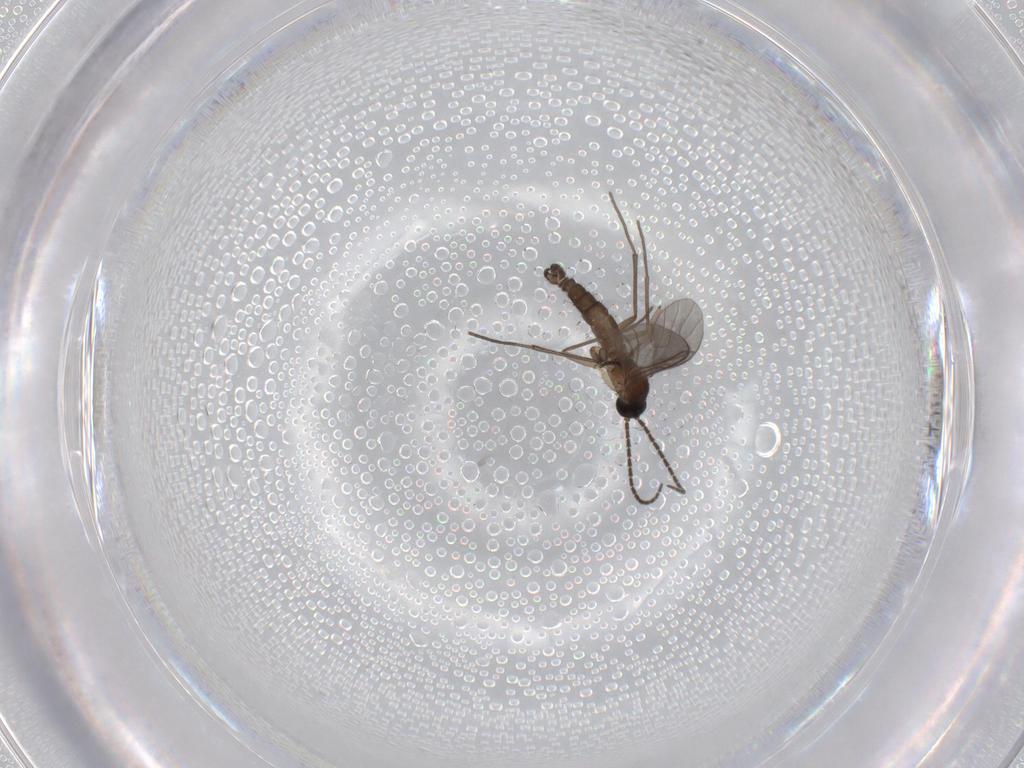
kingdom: Animalia
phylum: Arthropoda
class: Insecta
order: Diptera
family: Sciaridae
